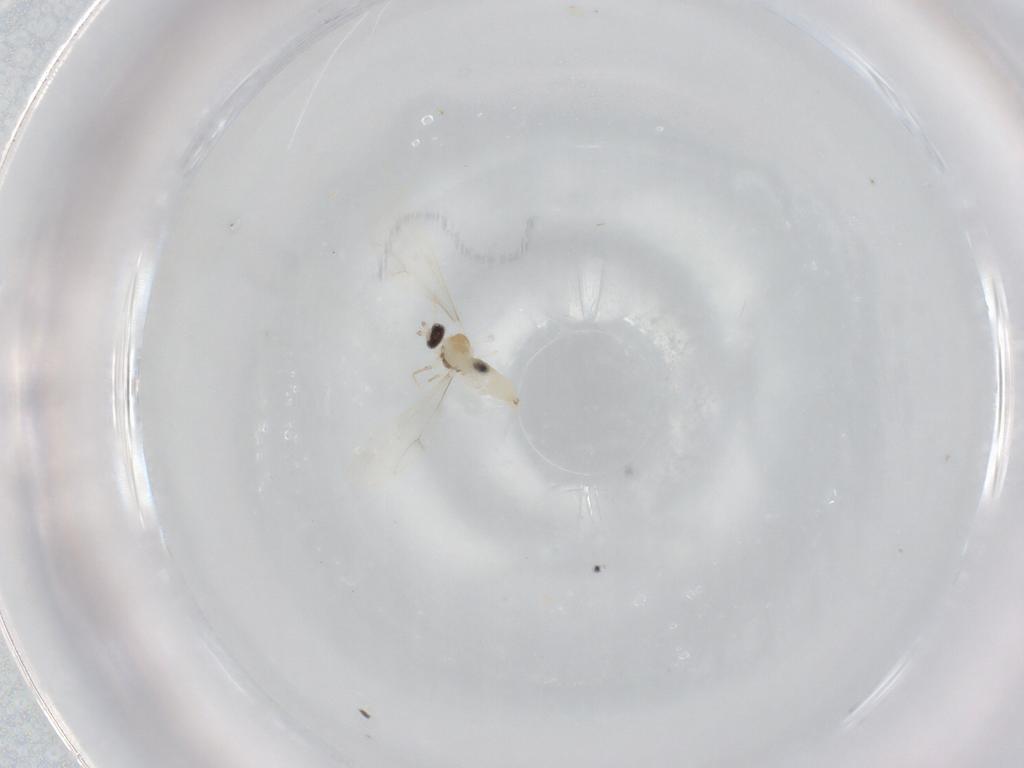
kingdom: Animalia
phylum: Arthropoda
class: Insecta
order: Diptera
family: Cecidomyiidae
